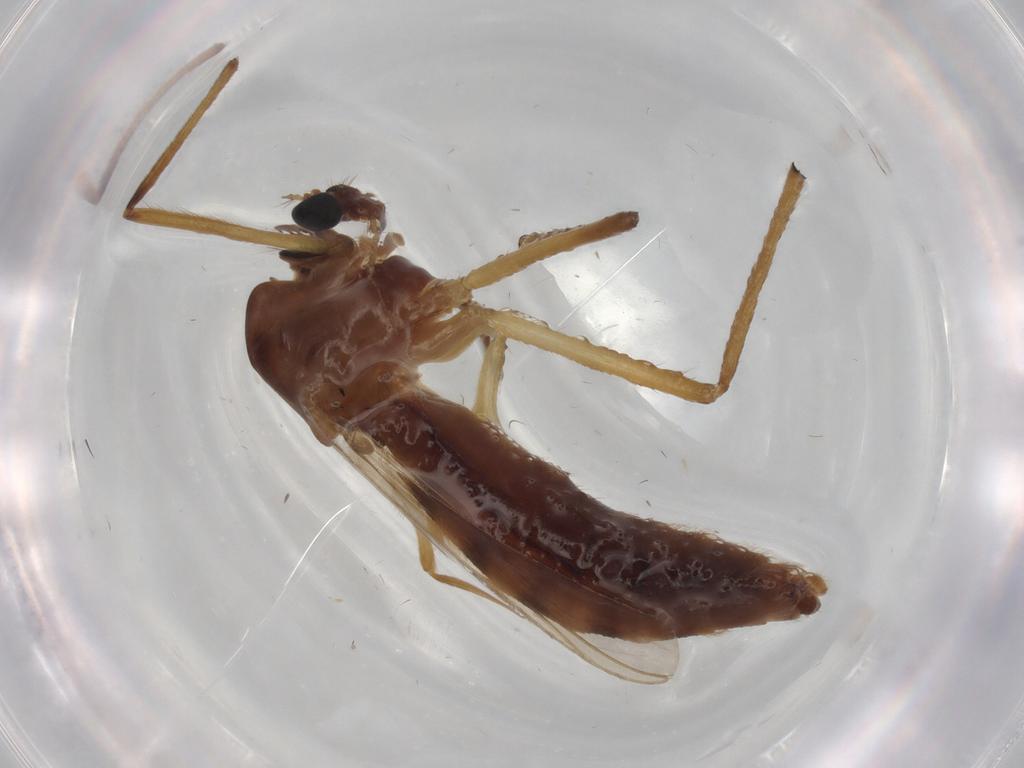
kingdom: Animalia
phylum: Arthropoda
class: Insecta
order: Diptera
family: Chironomidae
